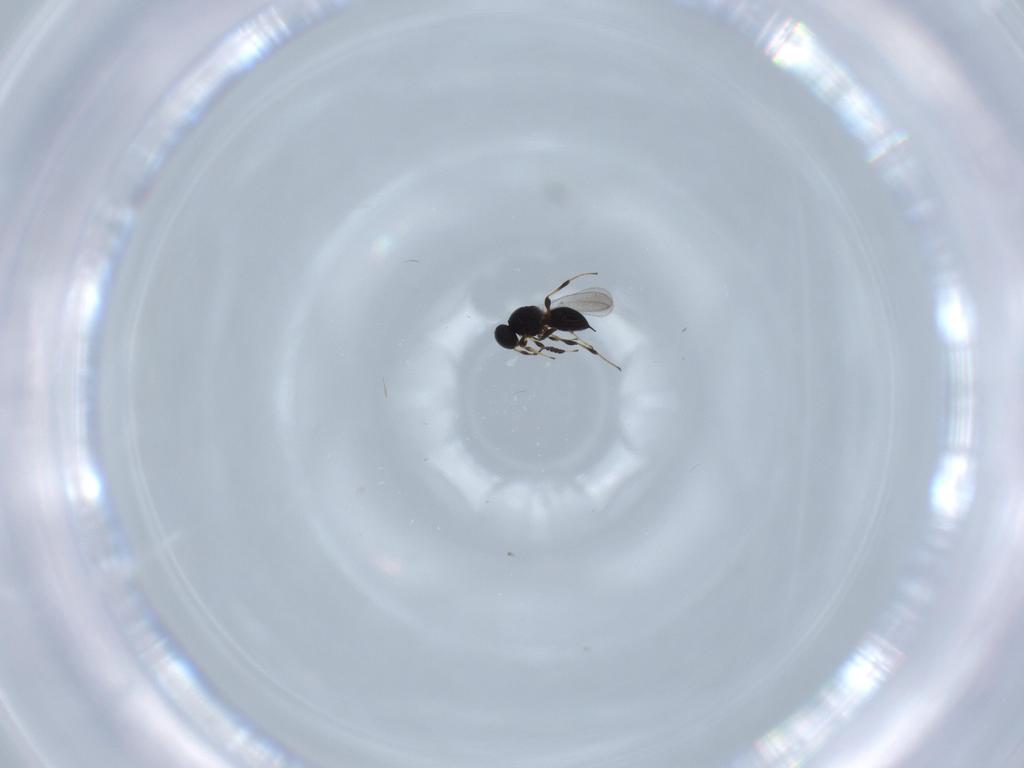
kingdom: Animalia
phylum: Arthropoda
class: Insecta
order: Hymenoptera
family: Platygastridae
